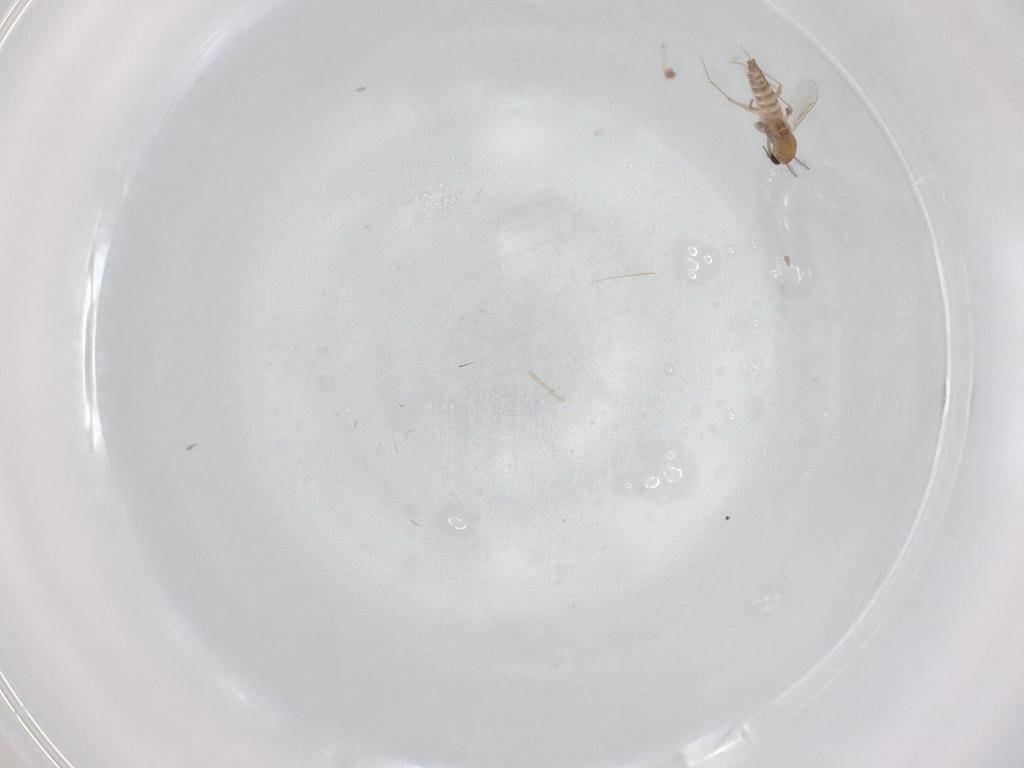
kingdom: Animalia
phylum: Arthropoda
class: Insecta
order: Diptera
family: Chironomidae
